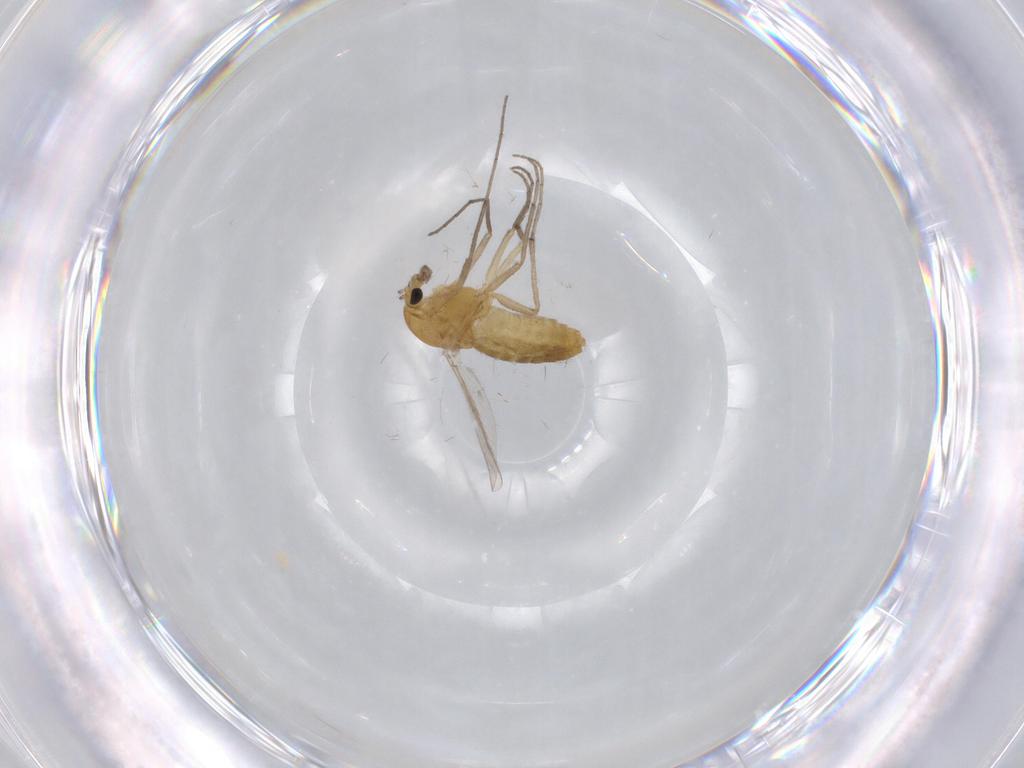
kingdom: Animalia
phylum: Arthropoda
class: Insecta
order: Diptera
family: Chironomidae
